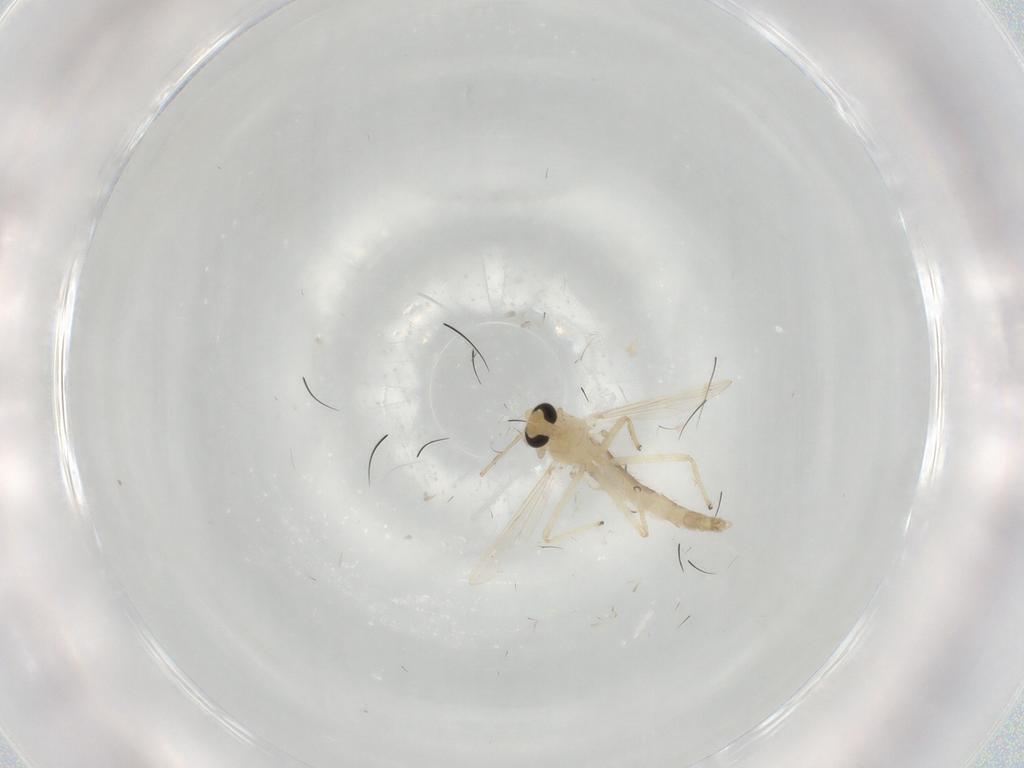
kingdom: Animalia
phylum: Arthropoda
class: Insecta
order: Diptera
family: Chironomidae
